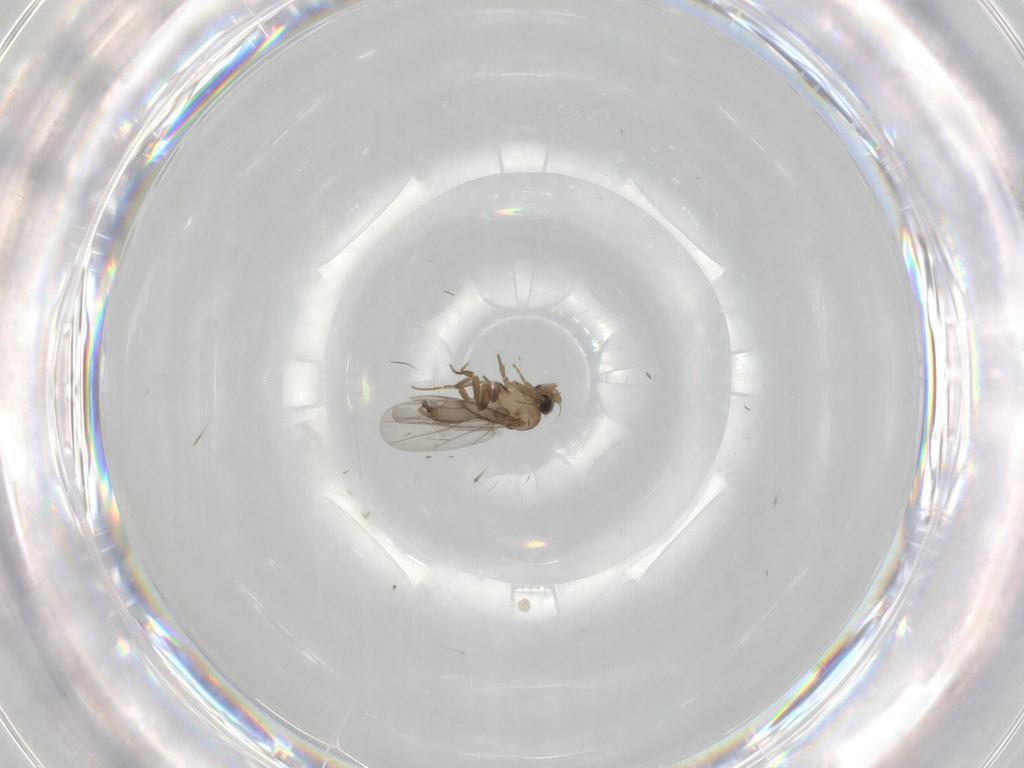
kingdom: Animalia
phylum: Arthropoda
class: Insecta
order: Diptera
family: Chironomidae
